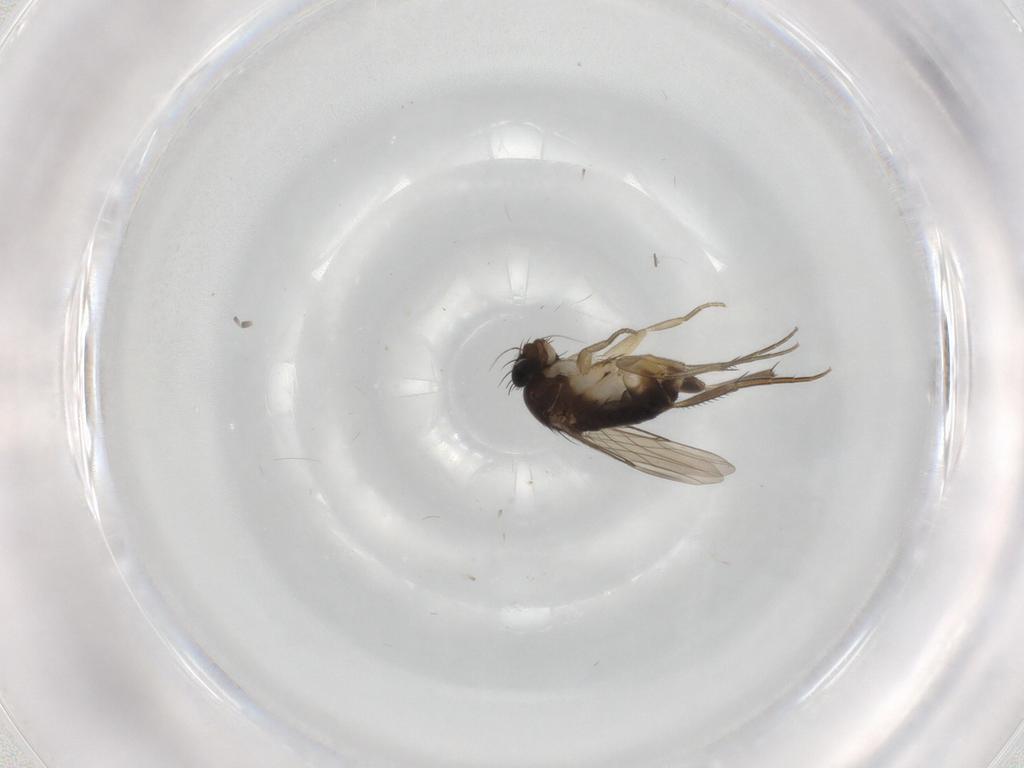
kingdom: Animalia
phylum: Arthropoda
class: Insecta
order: Diptera
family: Phoridae
